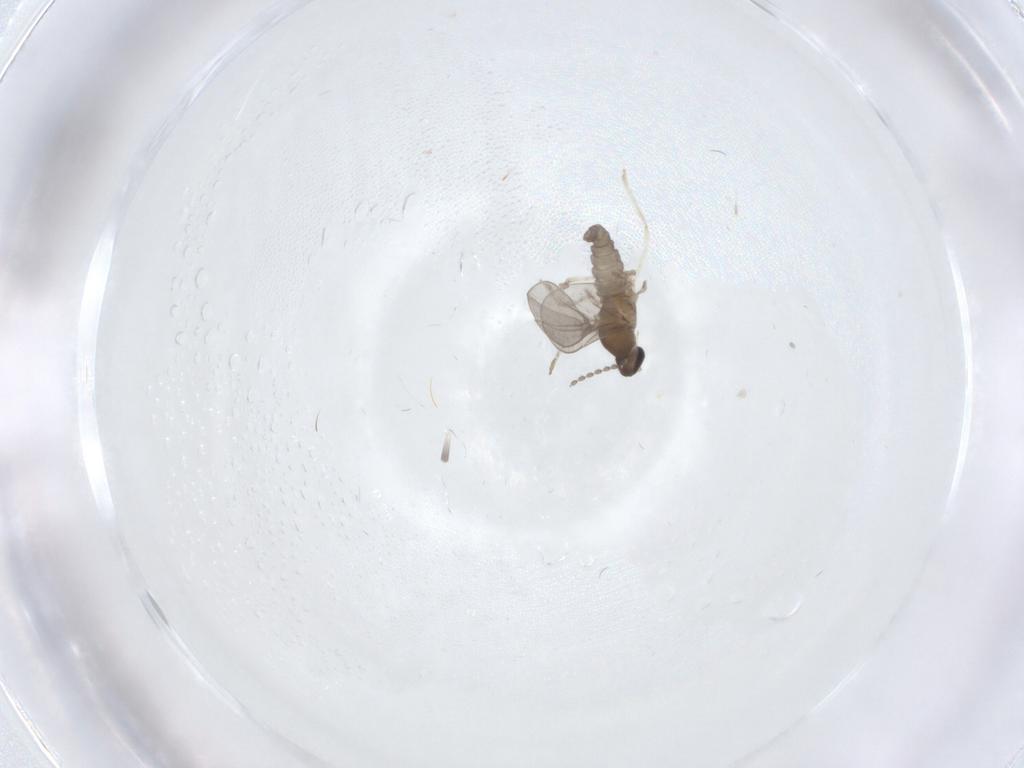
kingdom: Animalia
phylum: Arthropoda
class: Insecta
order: Diptera
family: Cecidomyiidae
